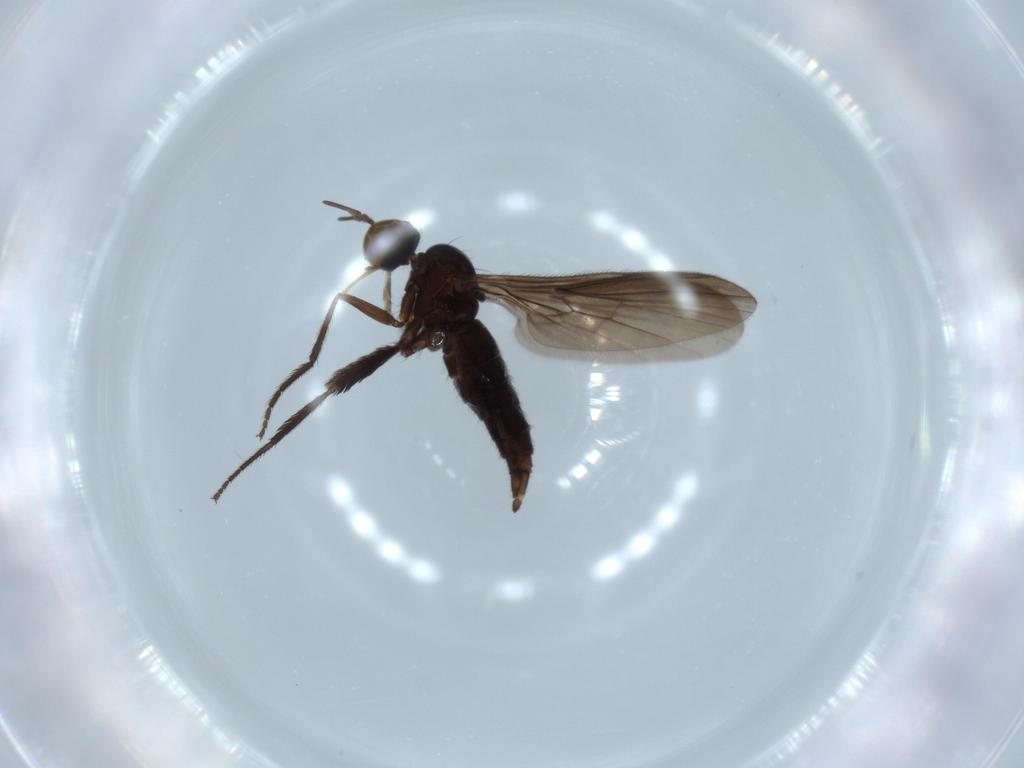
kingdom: Animalia
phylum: Arthropoda
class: Insecta
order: Diptera
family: Empididae
